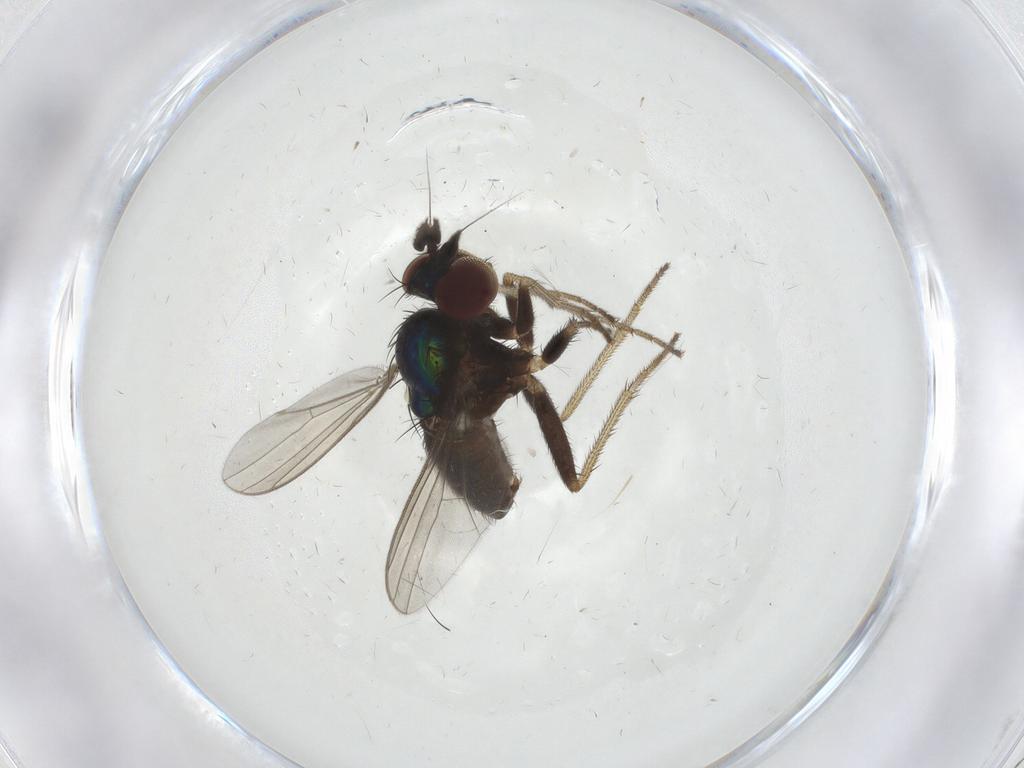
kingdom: Animalia
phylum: Arthropoda
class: Insecta
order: Diptera
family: Dolichopodidae
